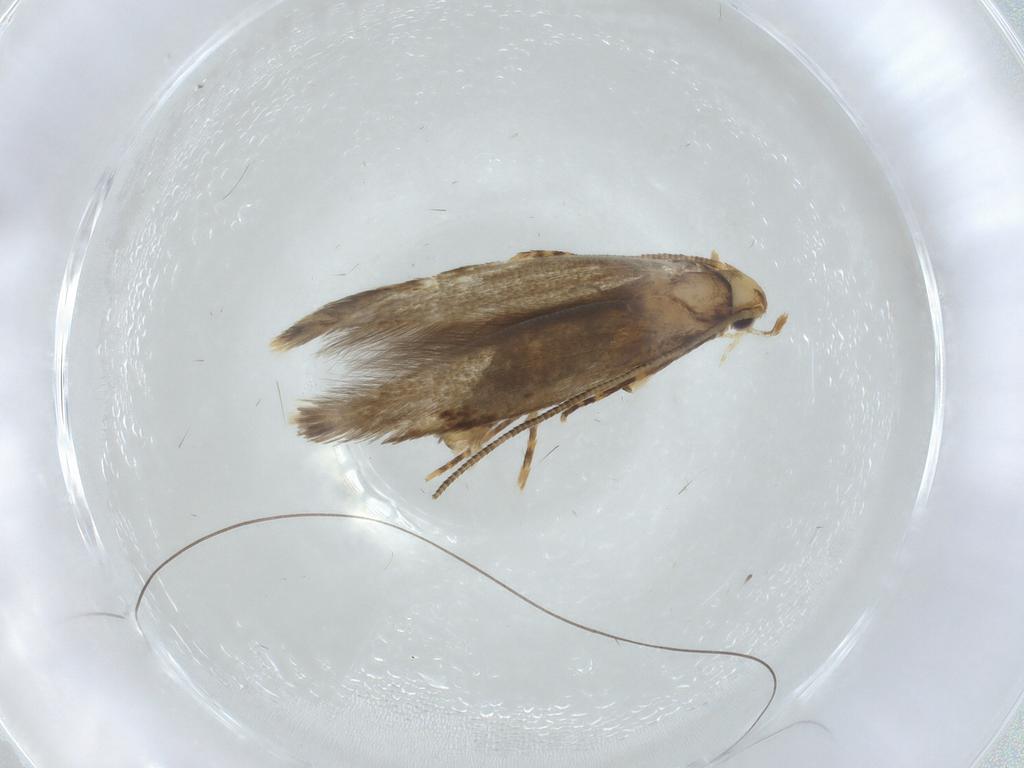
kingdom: Animalia
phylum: Arthropoda
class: Insecta
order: Lepidoptera
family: Tineidae
